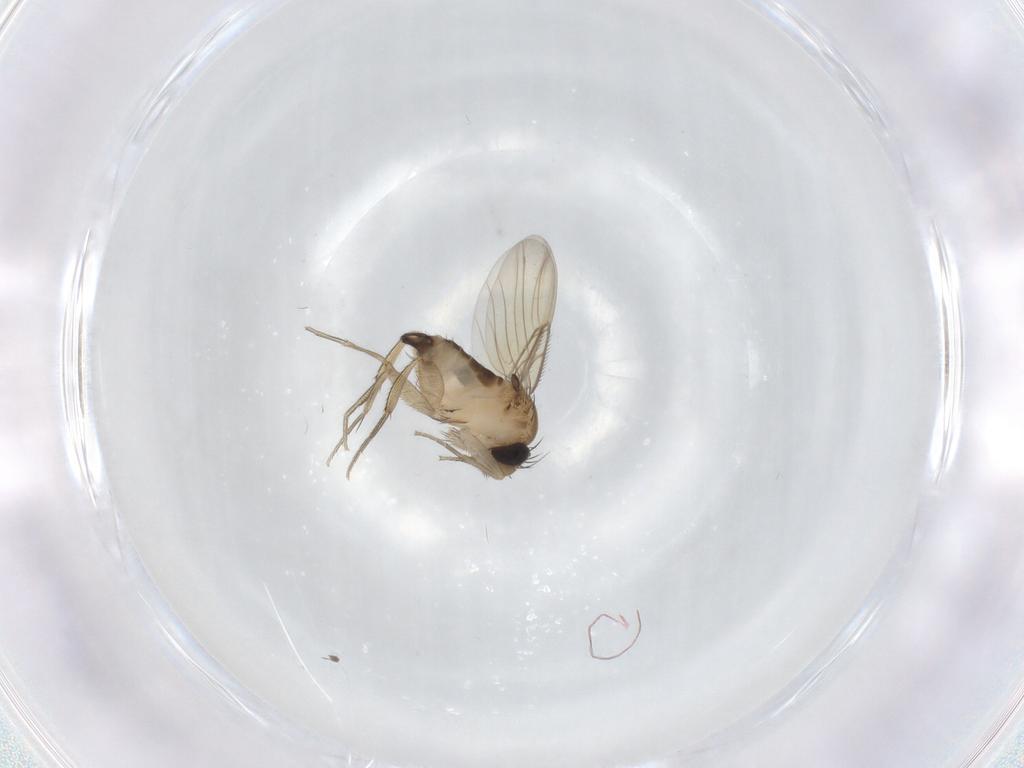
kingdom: Animalia
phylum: Arthropoda
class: Insecta
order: Diptera
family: Phoridae
